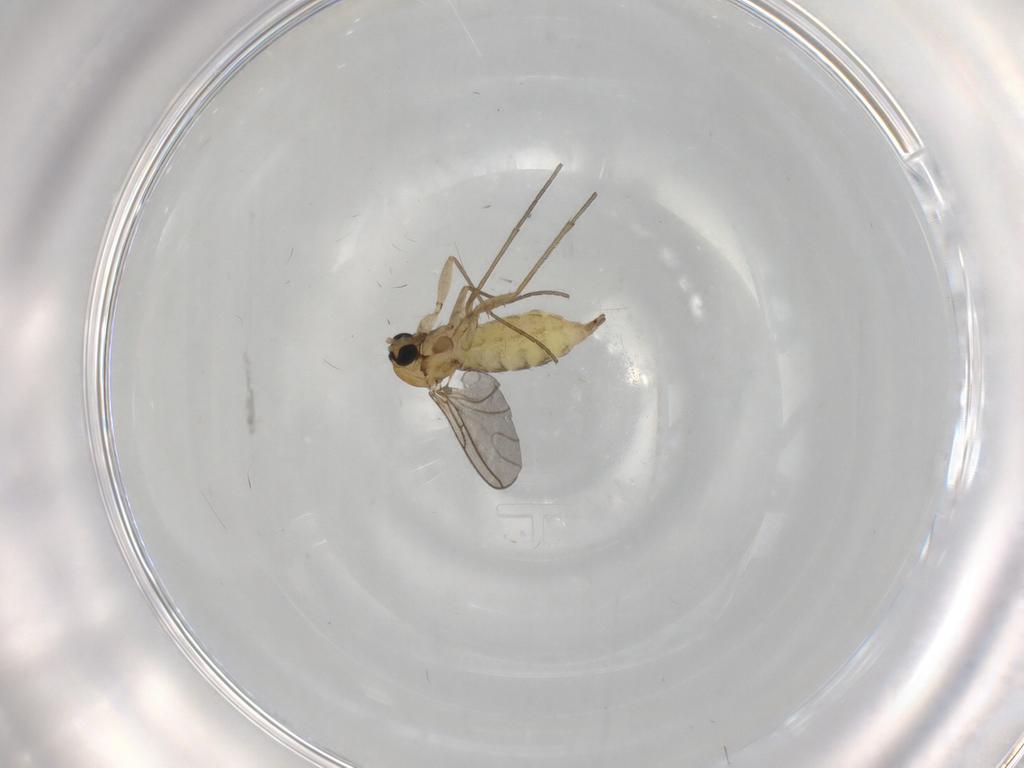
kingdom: Animalia
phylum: Arthropoda
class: Insecta
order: Diptera
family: Sciaridae
